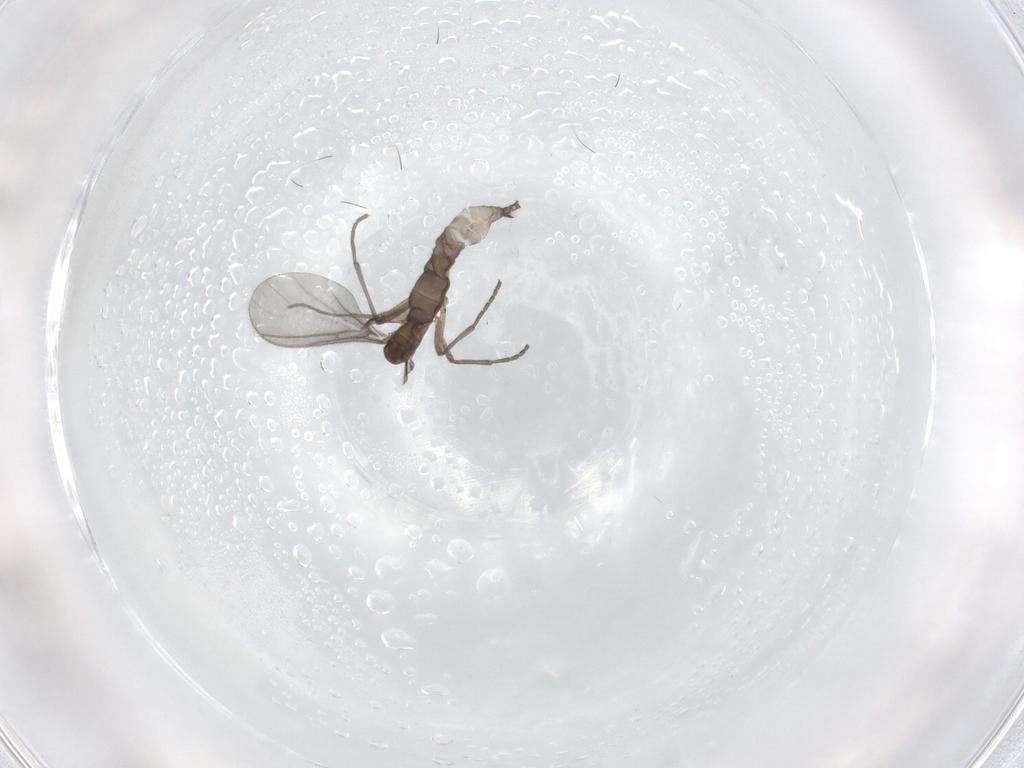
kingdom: Animalia
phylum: Arthropoda
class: Insecta
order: Diptera
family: Sciaridae
